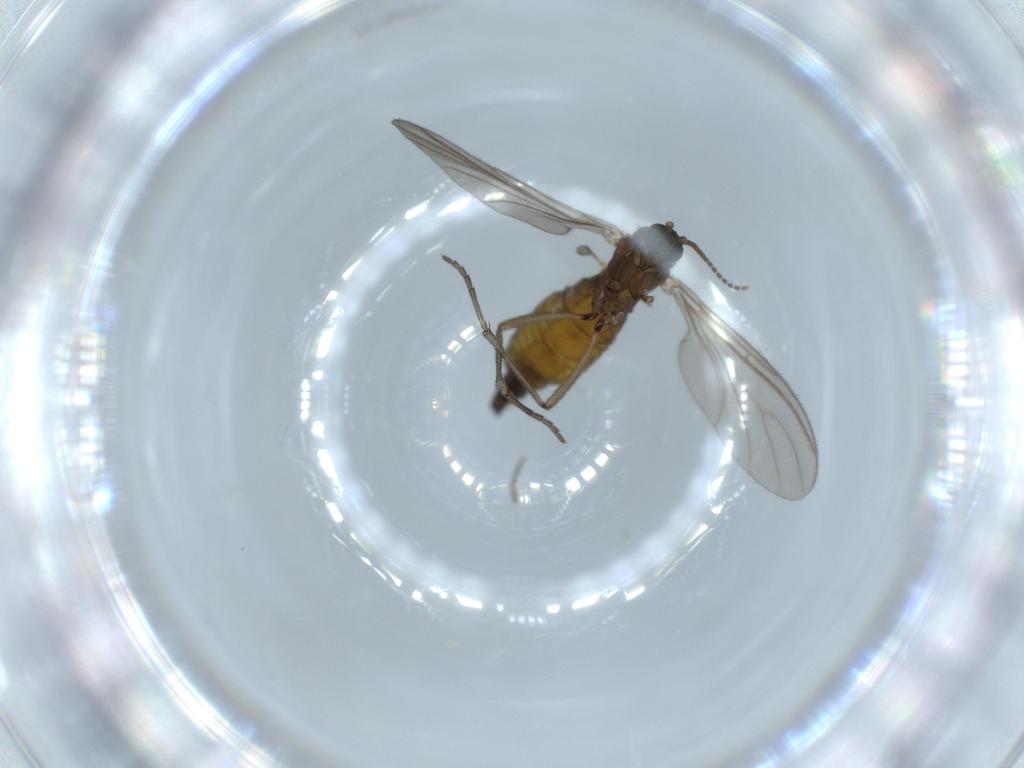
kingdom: Animalia
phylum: Arthropoda
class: Insecta
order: Diptera
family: Sciaridae
